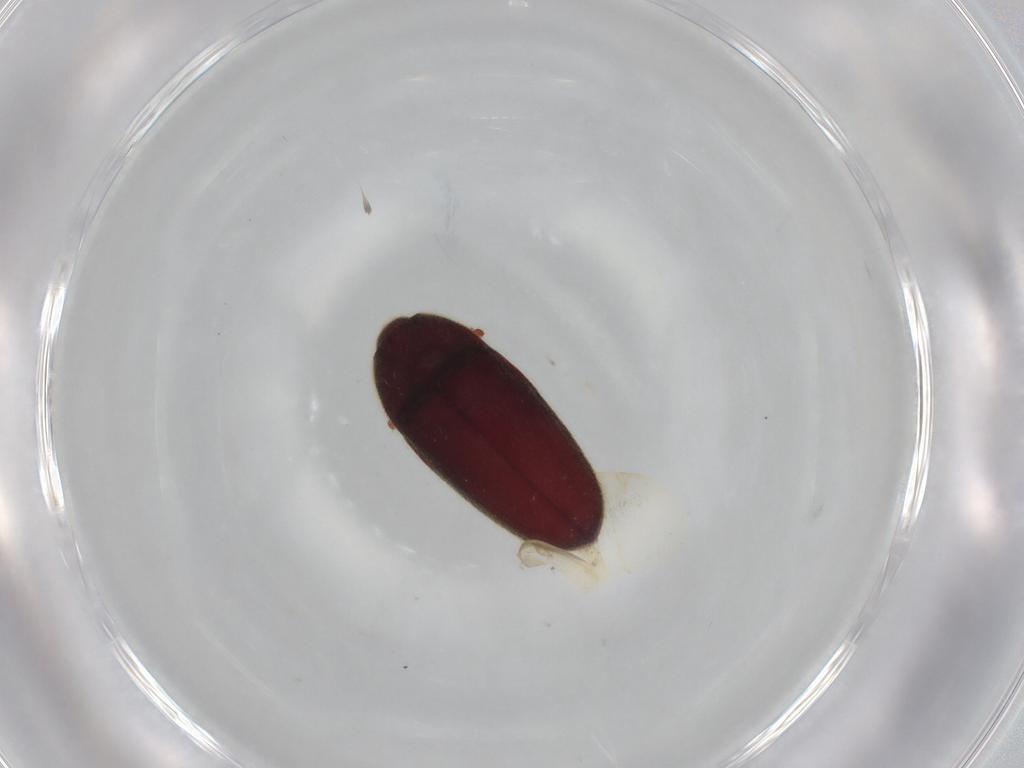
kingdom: Animalia
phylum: Arthropoda
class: Insecta
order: Coleoptera
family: Throscidae
